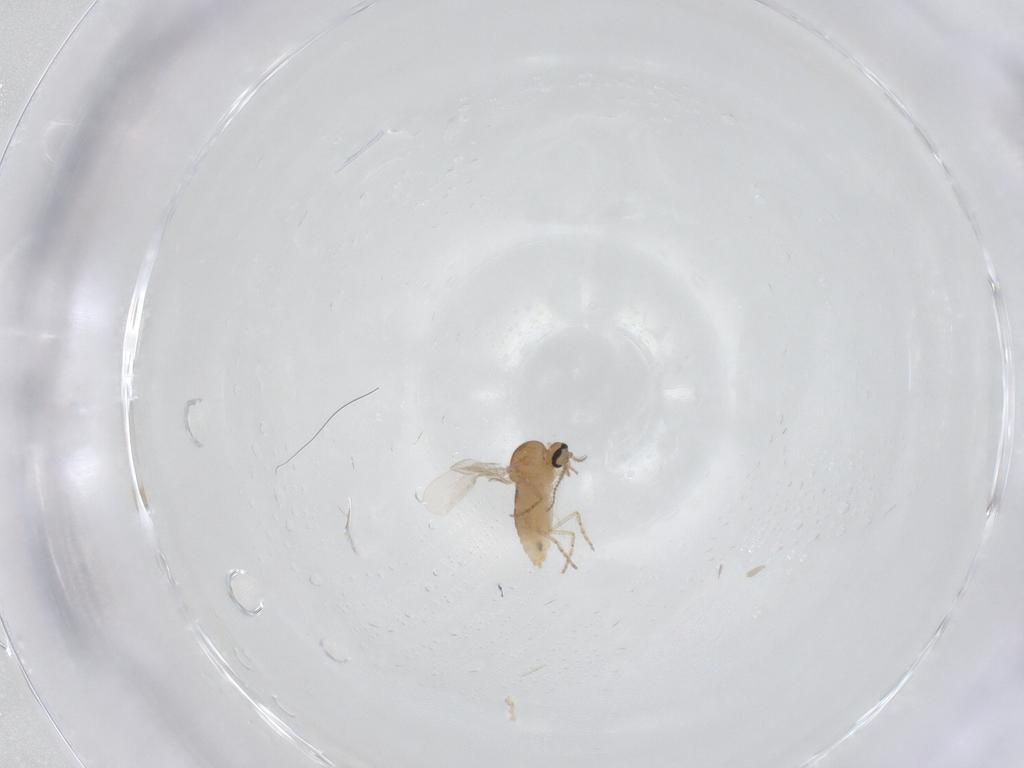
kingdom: Animalia
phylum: Arthropoda
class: Insecta
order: Diptera
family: Ceratopogonidae
